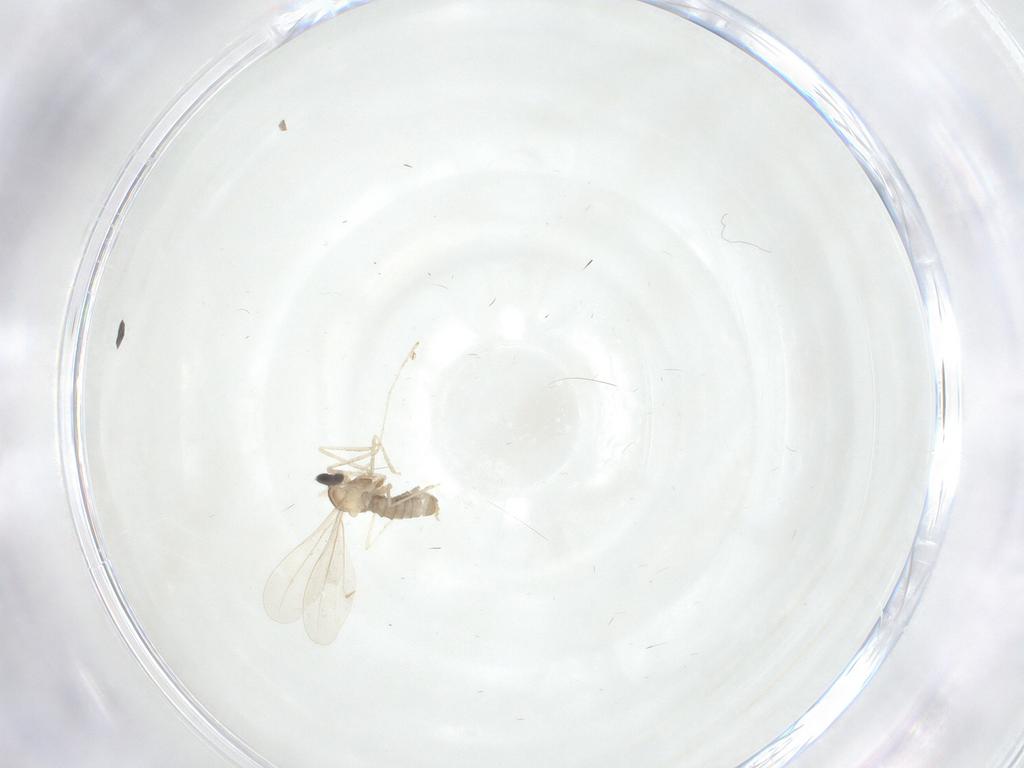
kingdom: Animalia
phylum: Arthropoda
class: Insecta
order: Diptera
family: Cecidomyiidae
